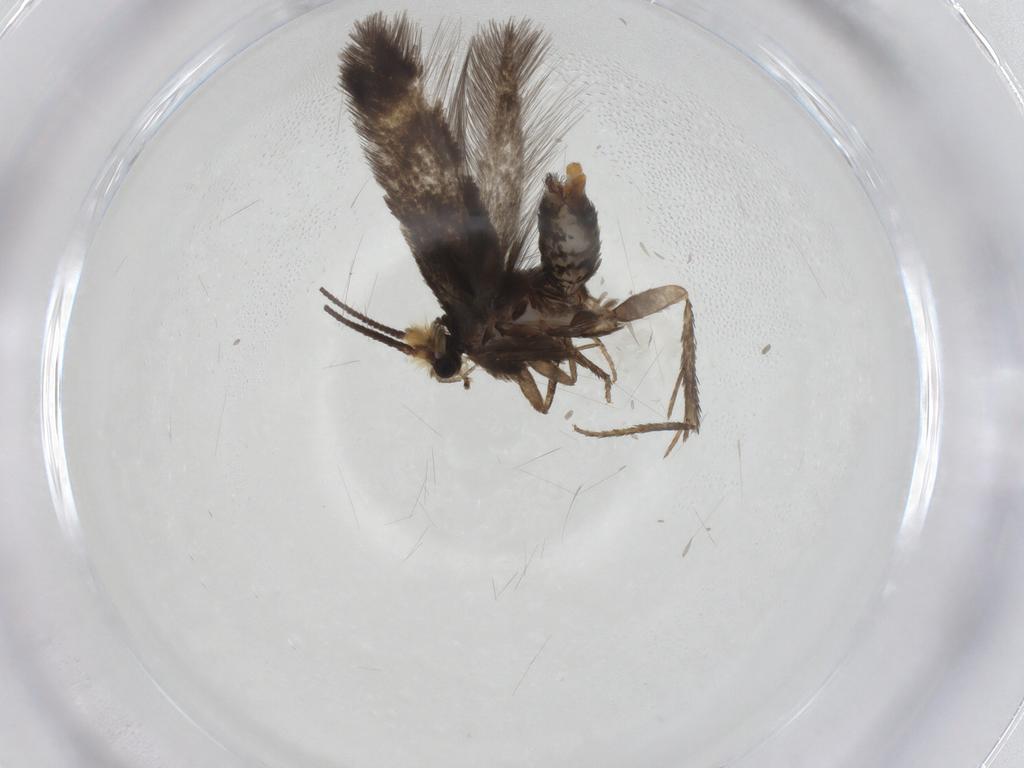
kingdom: Animalia
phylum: Arthropoda
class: Insecta
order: Lepidoptera
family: Nepticulidae
